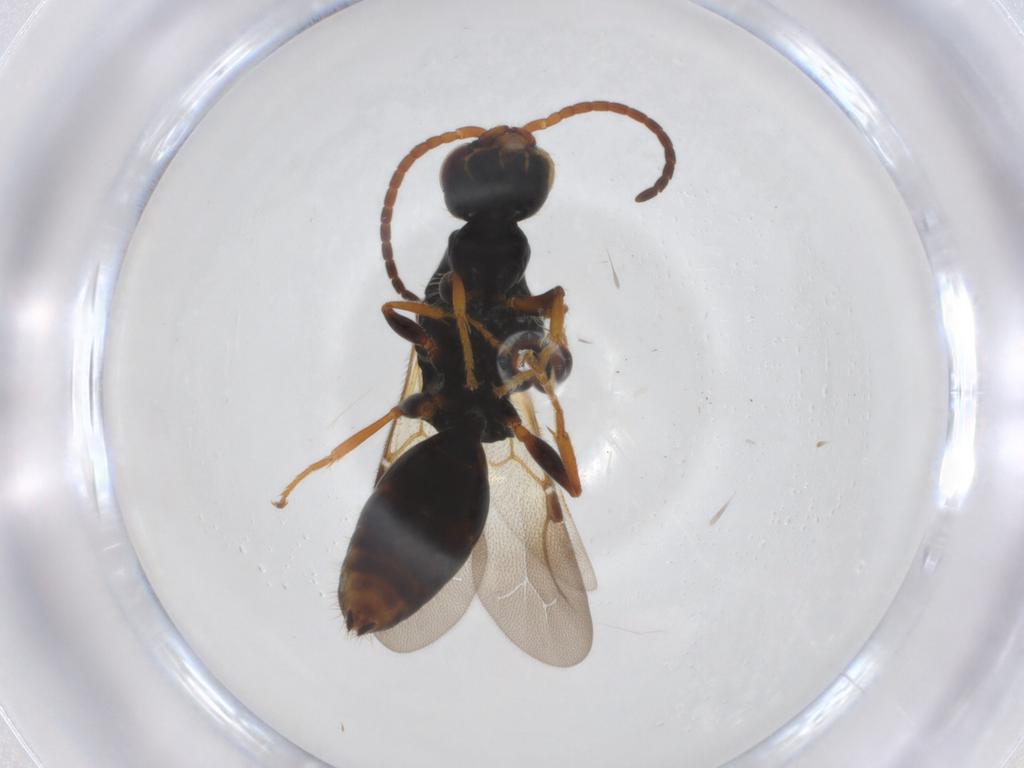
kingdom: Animalia
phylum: Arthropoda
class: Insecta
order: Hymenoptera
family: Bethylidae
